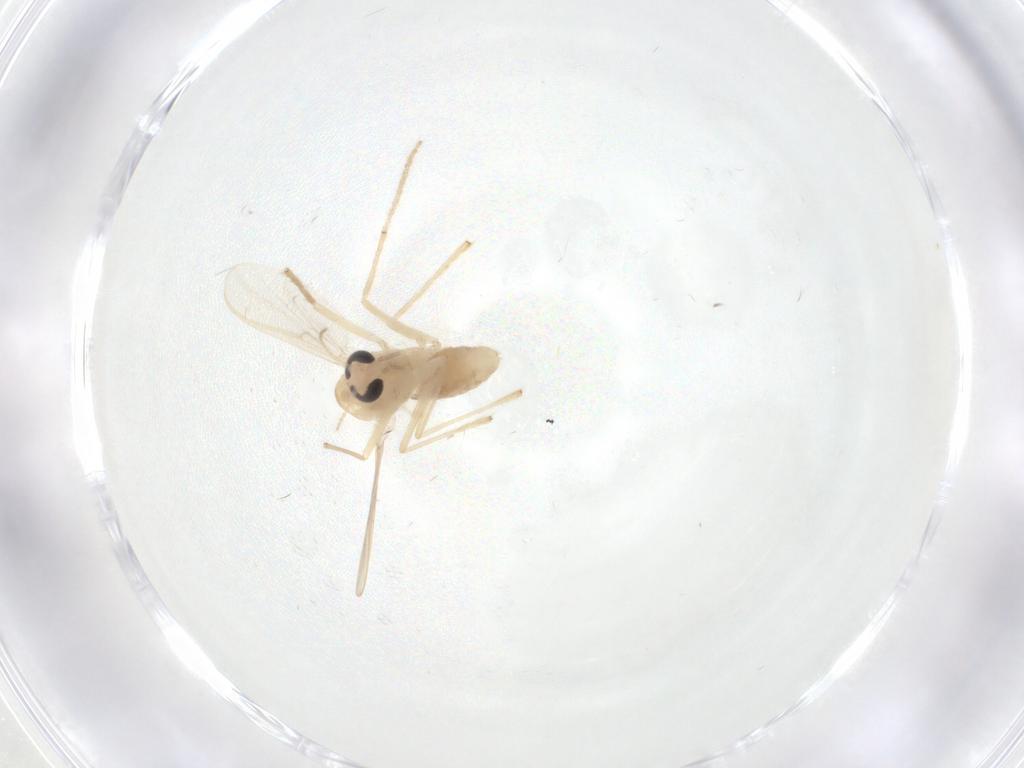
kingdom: Animalia
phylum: Arthropoda
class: Insecta
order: Diptera
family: Chironomidae
